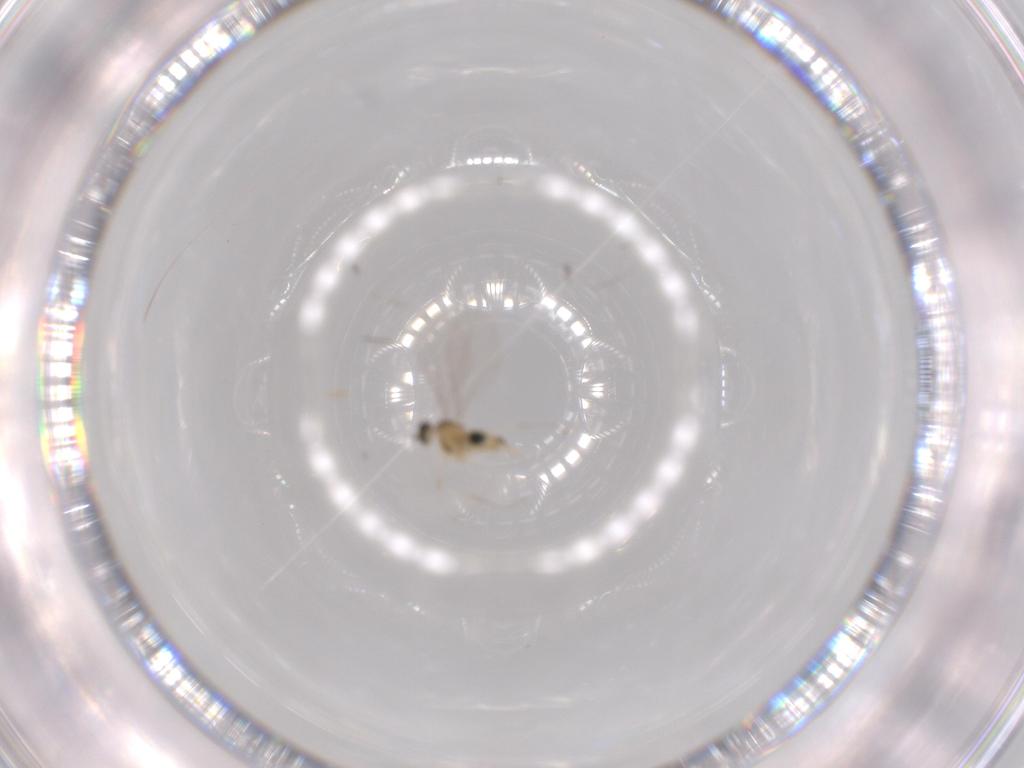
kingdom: Animalia
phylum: Arthropoda
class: Insecta
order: Diptera
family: Cecidomyiidae
